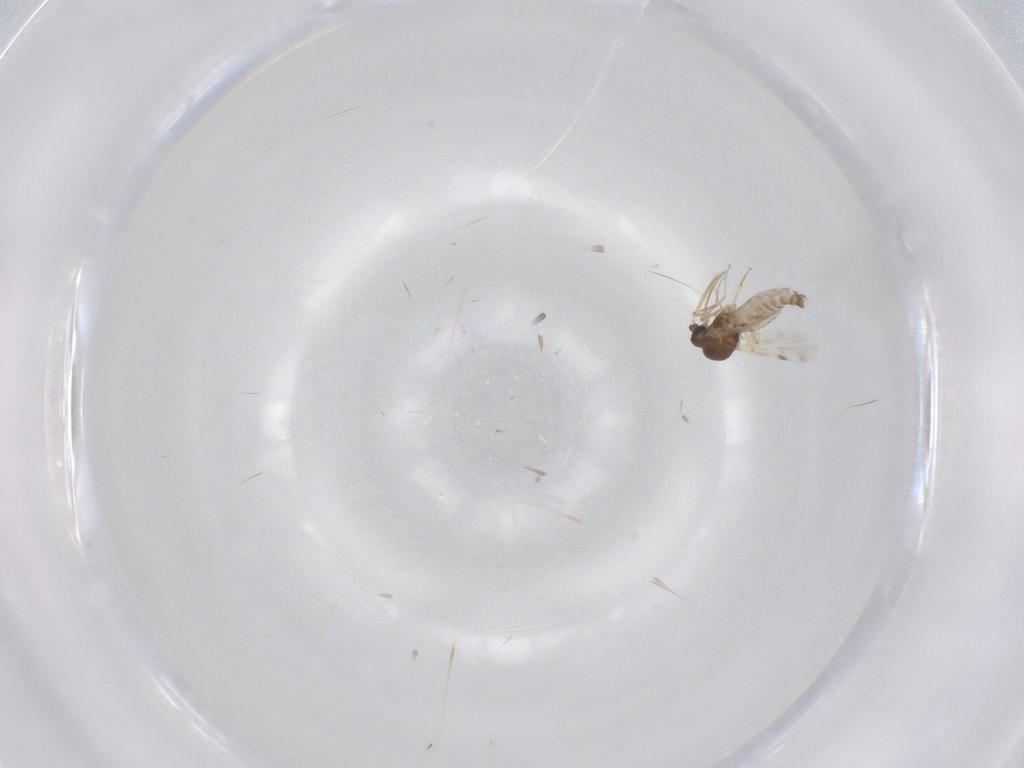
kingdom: Animalia
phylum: Arthropoda
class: Insecta
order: Diptera
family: Ceratopogonidae
